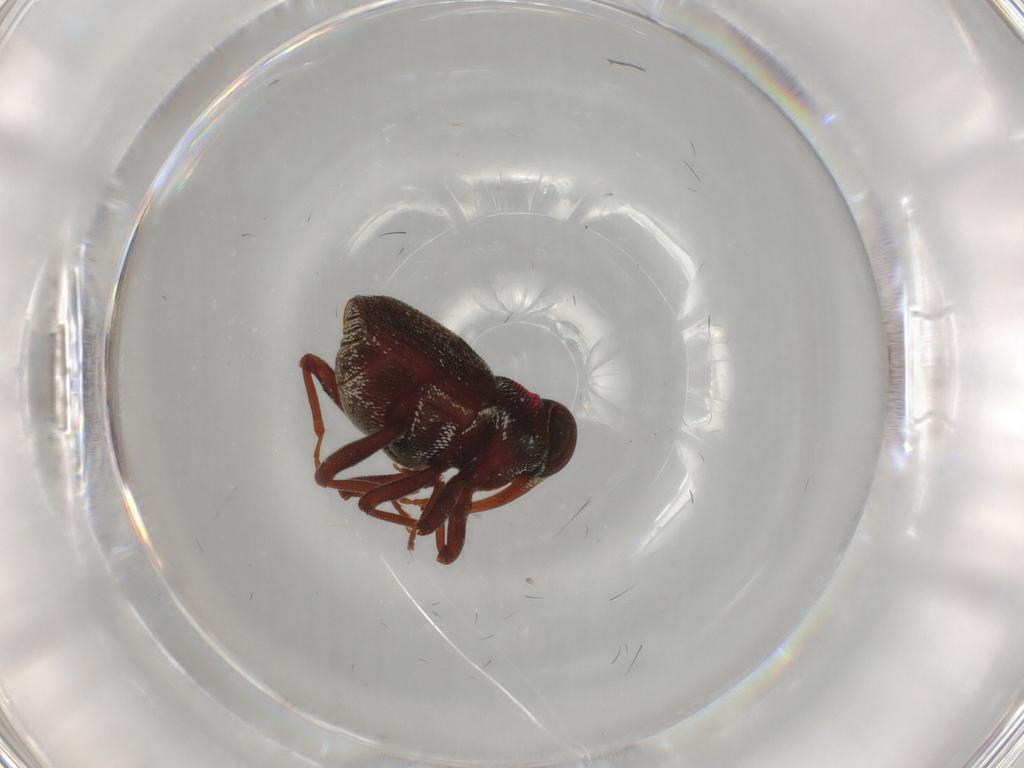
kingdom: Animalia
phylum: Arthropoda
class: Insecta
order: Coleoptera
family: Curculionidae
